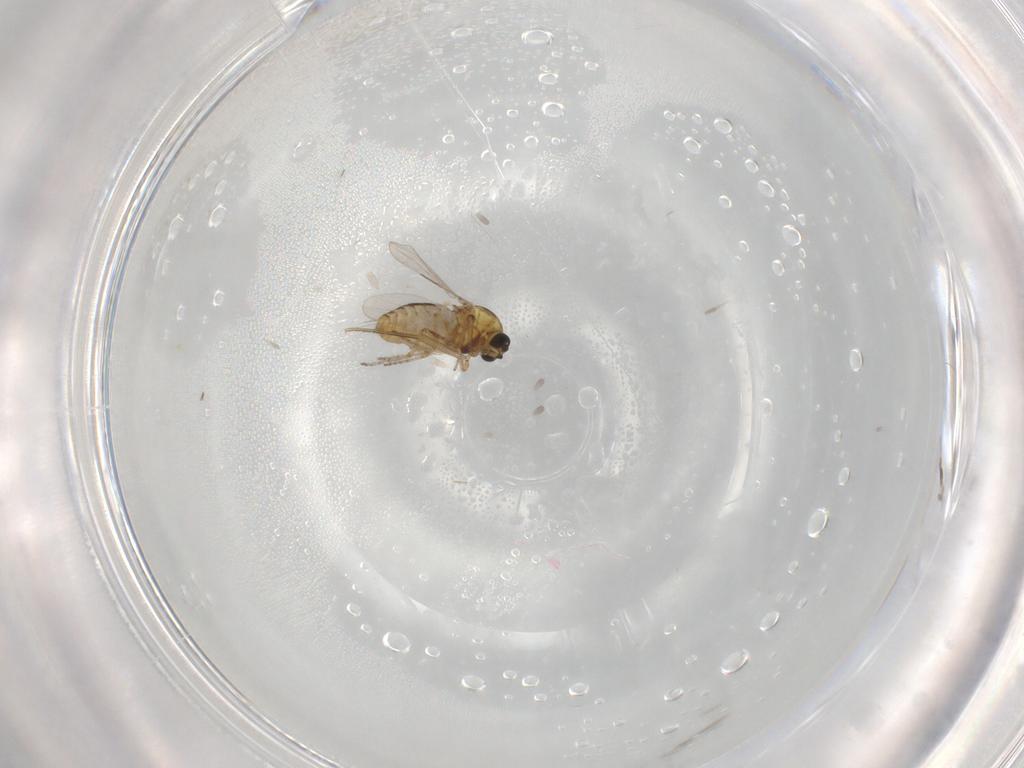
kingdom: Animalia
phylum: Arthropoda
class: Insecta
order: Diptera
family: Ceratopogonidae
